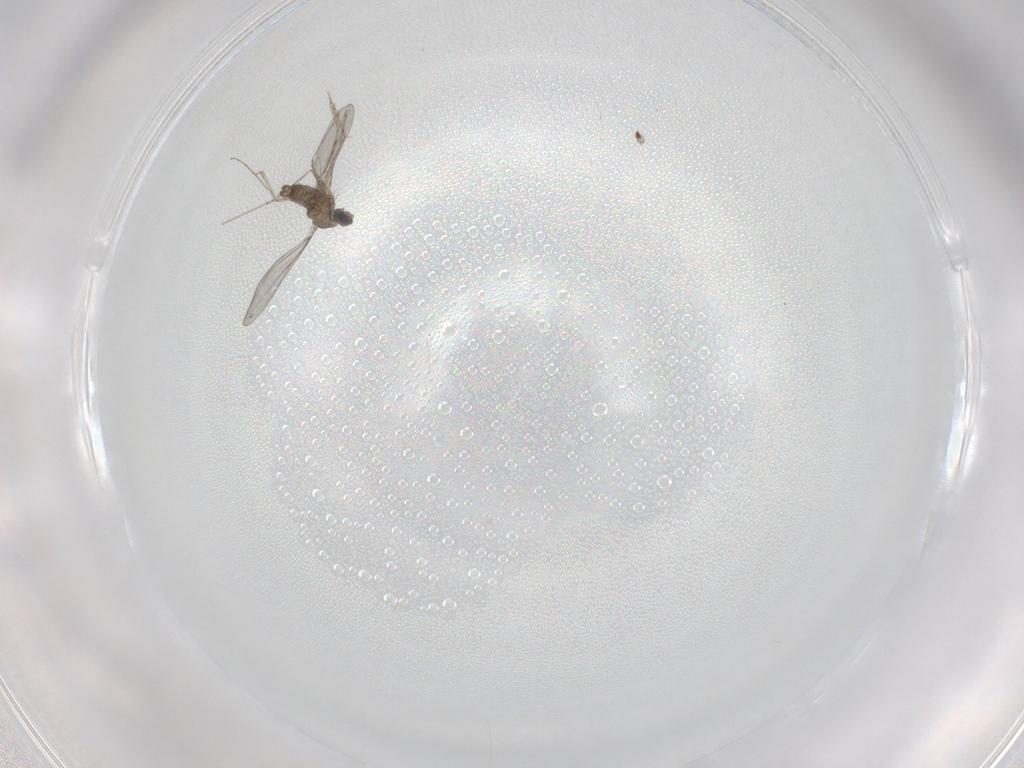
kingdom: Animalia
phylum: Arthropoda
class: Insecta
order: Diptera
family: Cecidomyiidae
